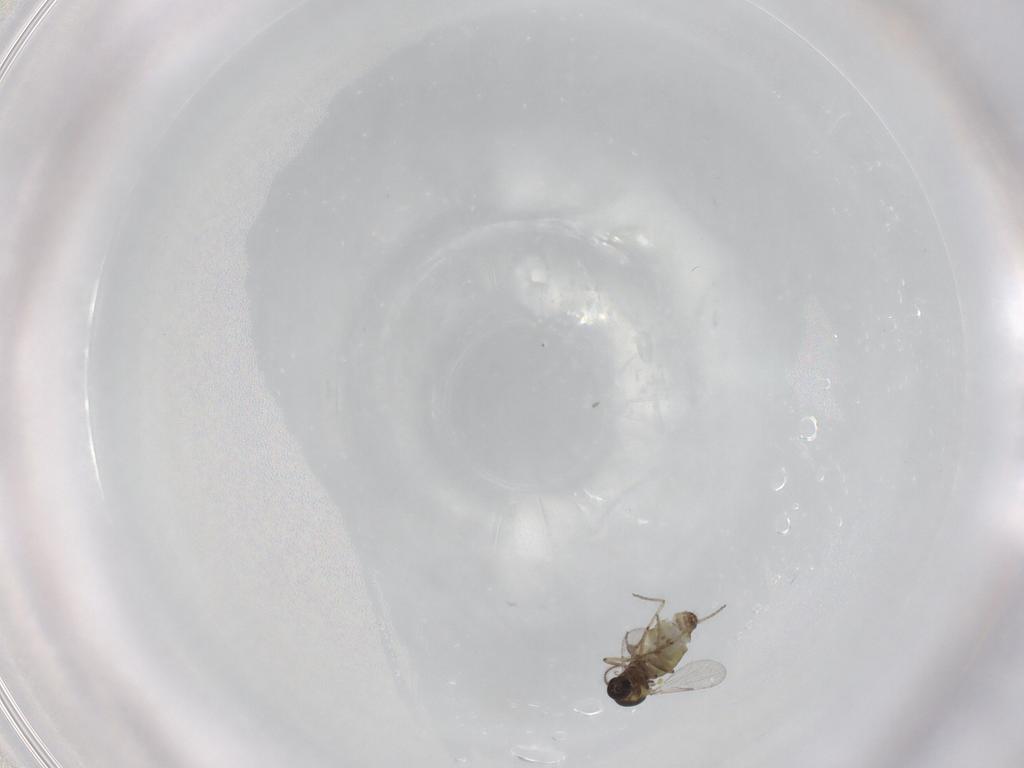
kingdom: Animalia
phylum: Arthropoda
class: Insecta
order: Diptera
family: Ceratopogonidae
